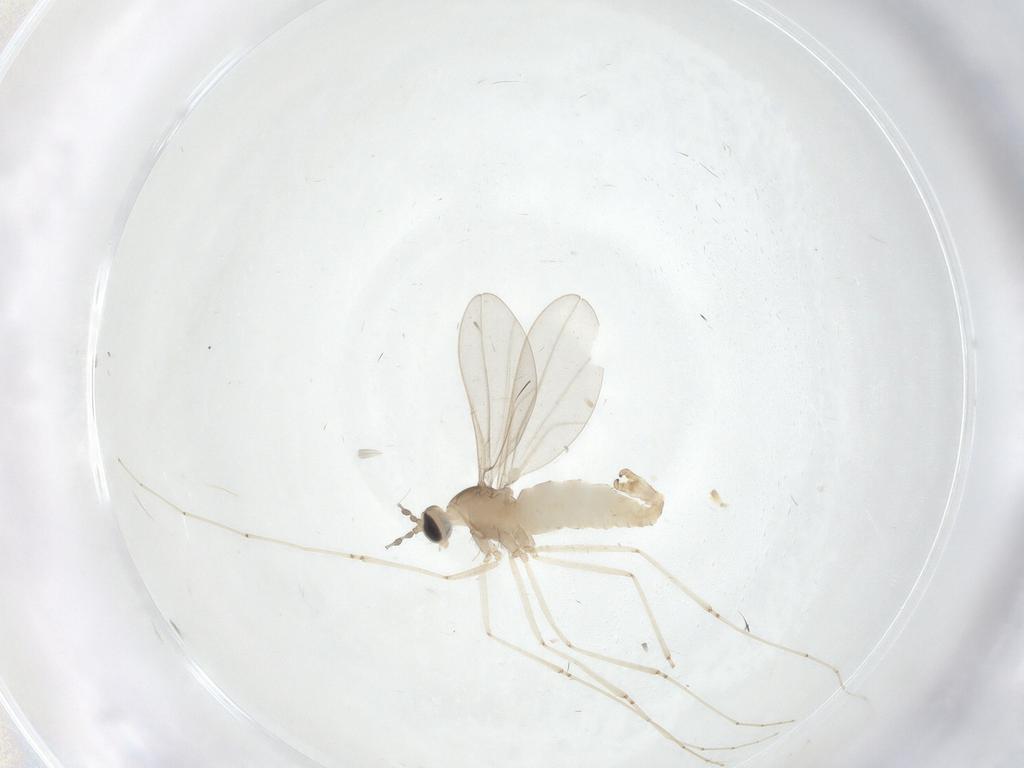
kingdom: Animalia
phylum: Arthropoda
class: Insecta
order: Diptera
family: Cecidomyiidae
